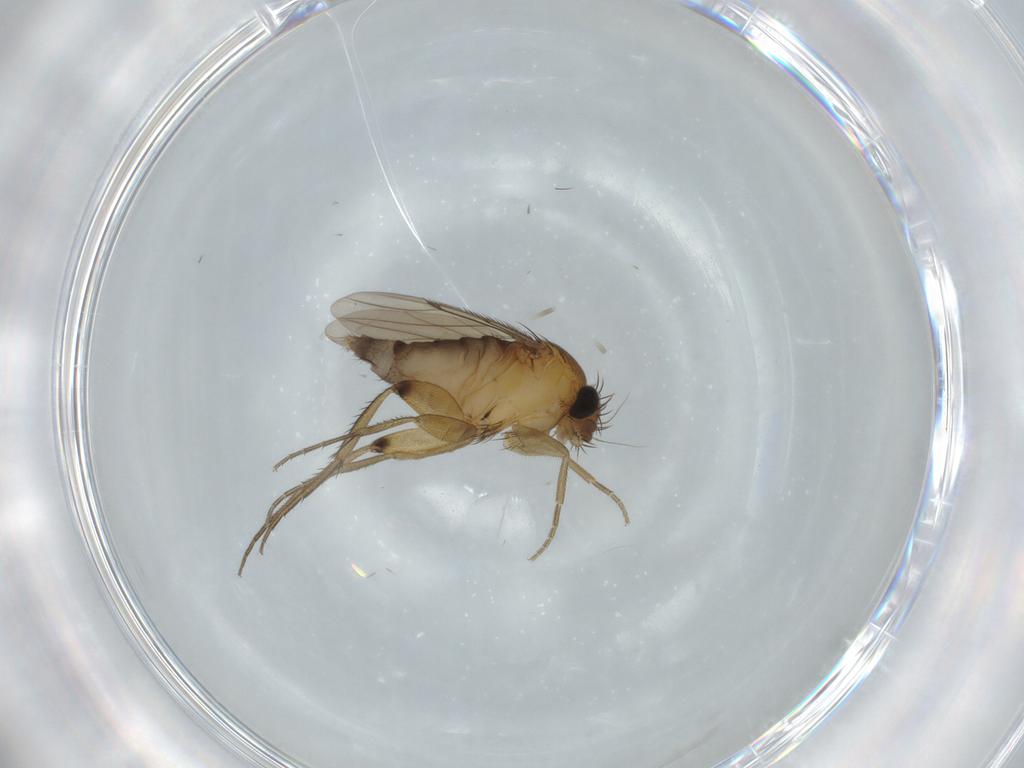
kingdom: Animalia
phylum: Arthropoda
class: Insecta
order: Diptera
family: Phoridae
